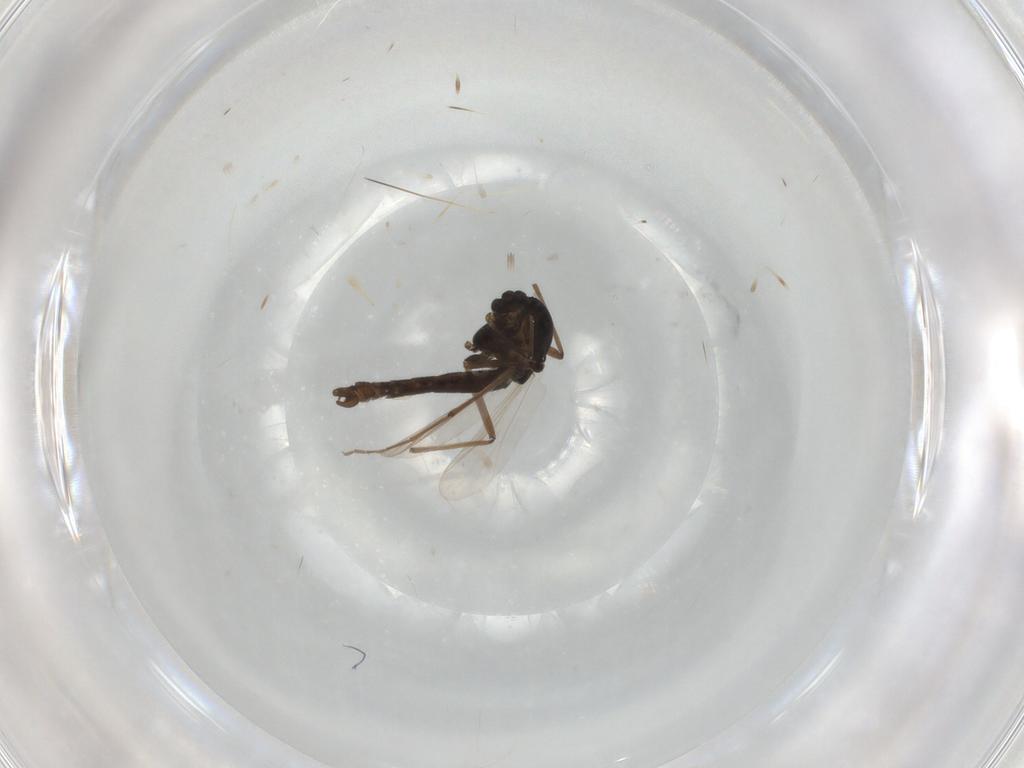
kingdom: Animalia
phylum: Arthropoda
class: Insecta
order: Diptera
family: Chironomidae
